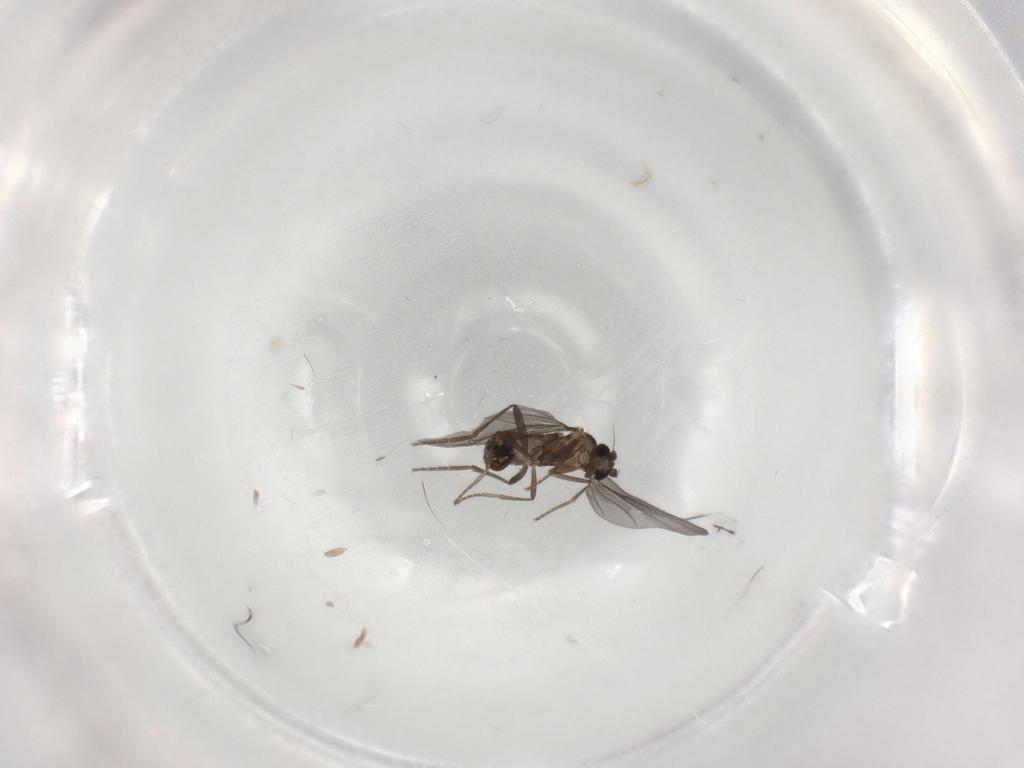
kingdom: Animalia
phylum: Arthropoda
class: Insecta
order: Diptera
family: Phoridae
